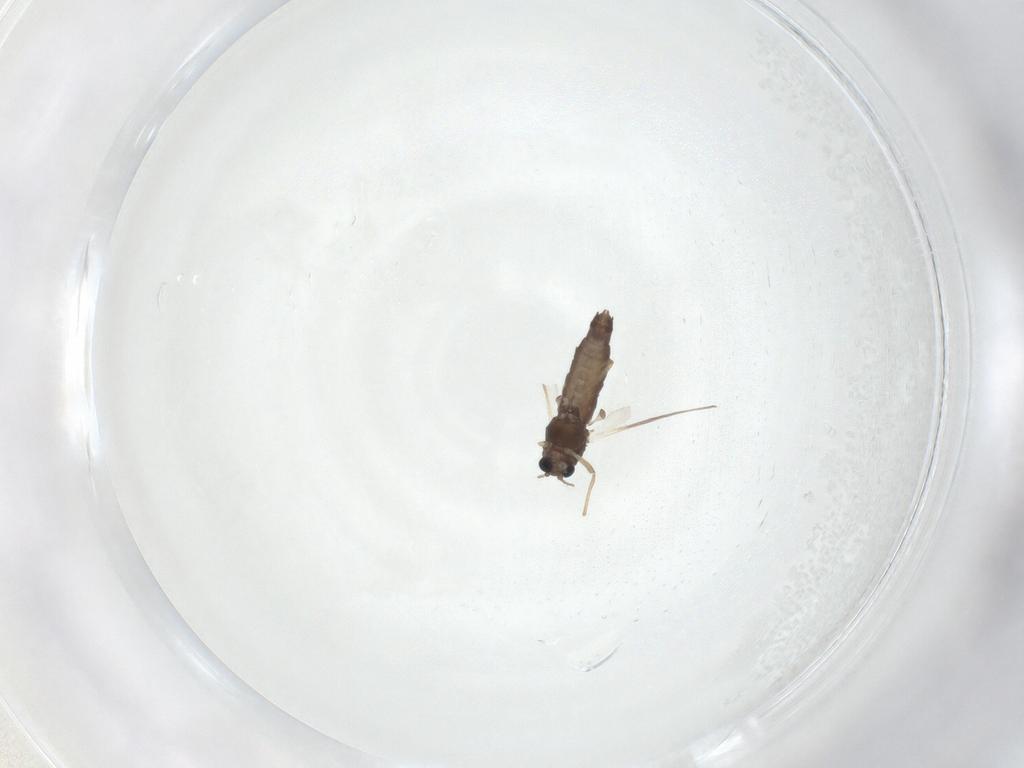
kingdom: Animalia
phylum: Arthropoda
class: Insecta
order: Diptera
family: Chironomidae
